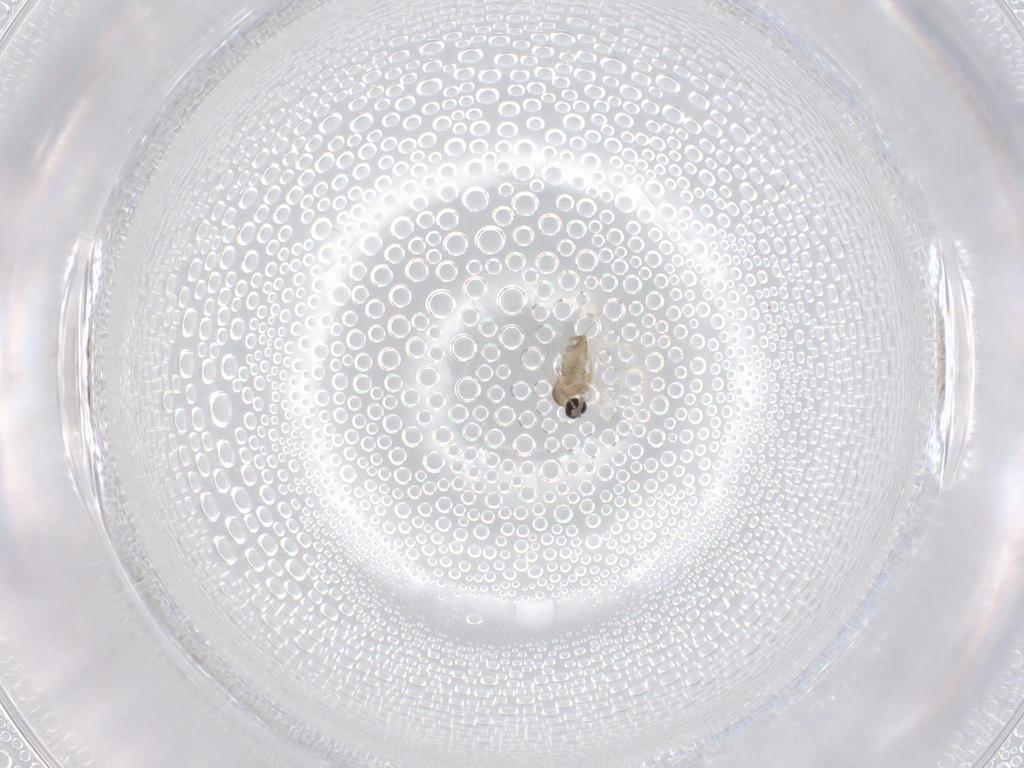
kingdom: Animalia
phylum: Arthropoda
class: Insecta
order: Diptera
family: Cecidomyiidae
